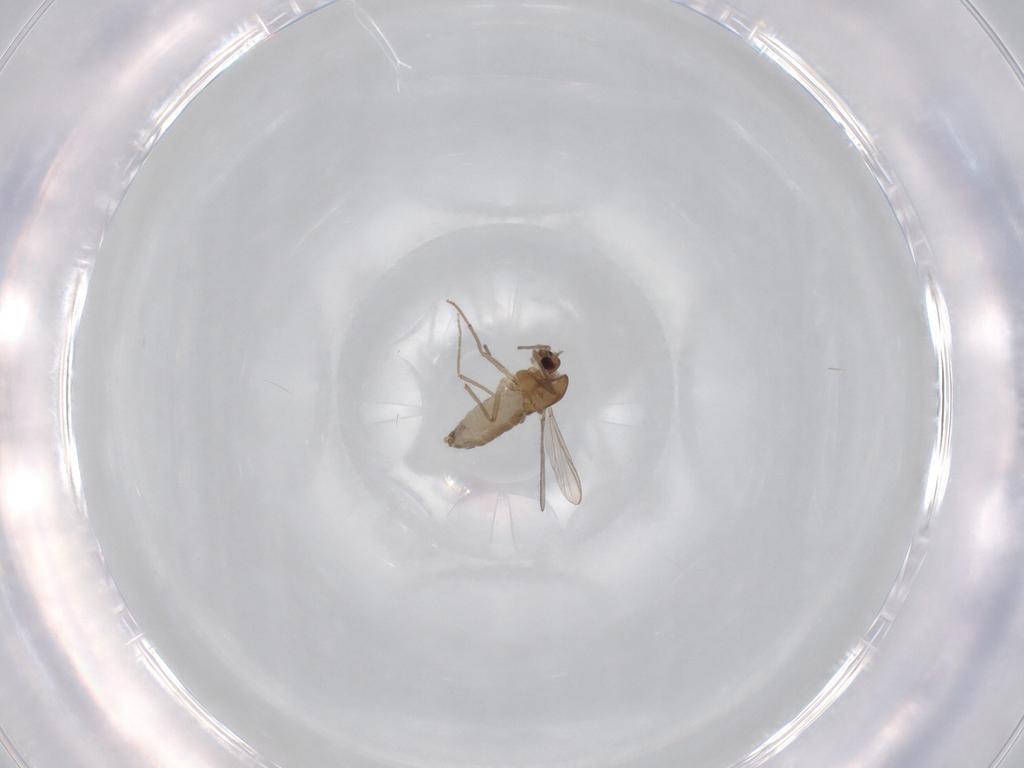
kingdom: Animalia
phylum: Arthropoda
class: Insecta
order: Diptera
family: Chironomidae
